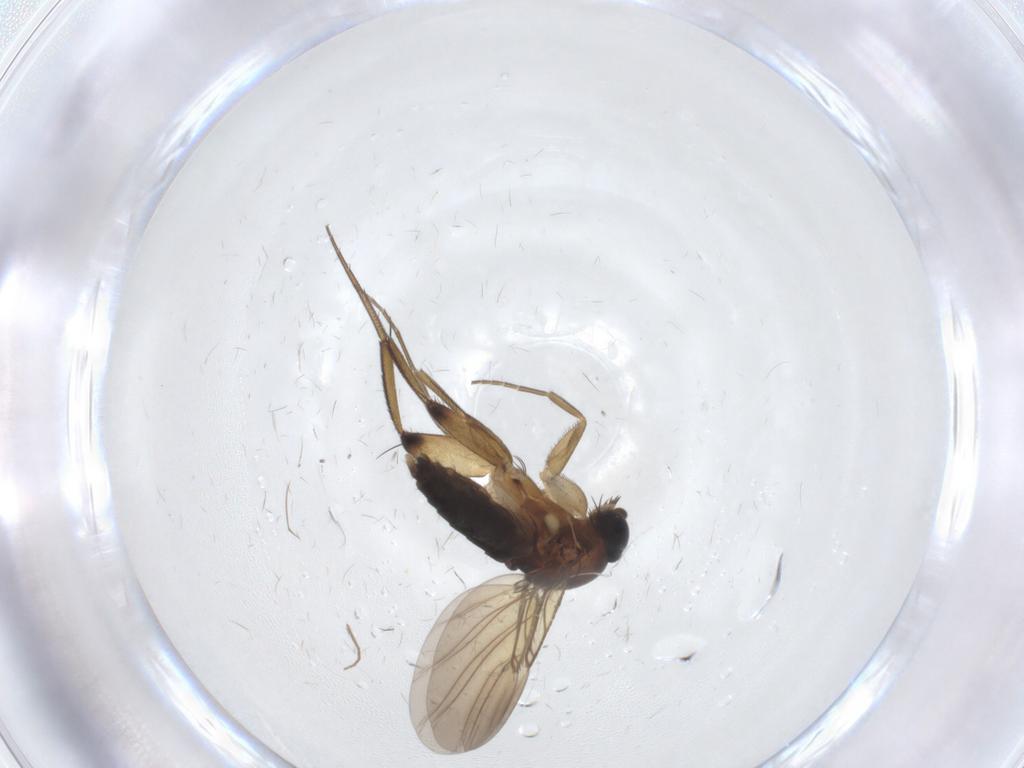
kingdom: Animalia
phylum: Arthropoda
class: Insecta
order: Diptera
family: Phoridae
